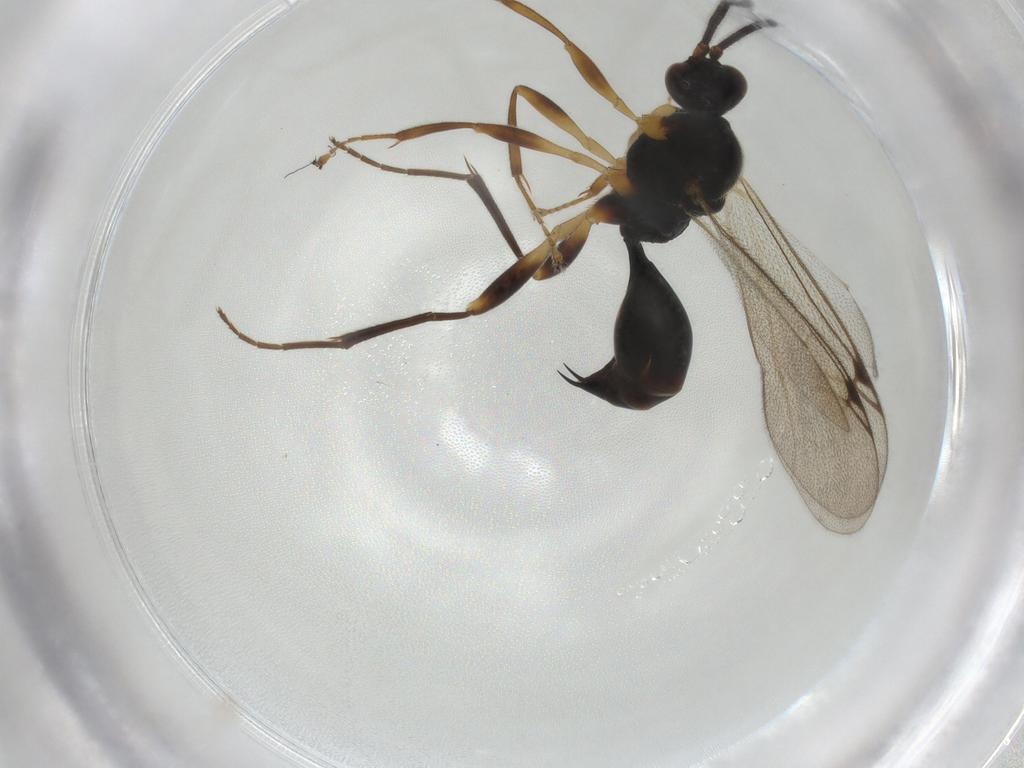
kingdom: Animalia
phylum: Arthropoda
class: Insecta
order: Hymenoptera
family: Proctotrupidae
